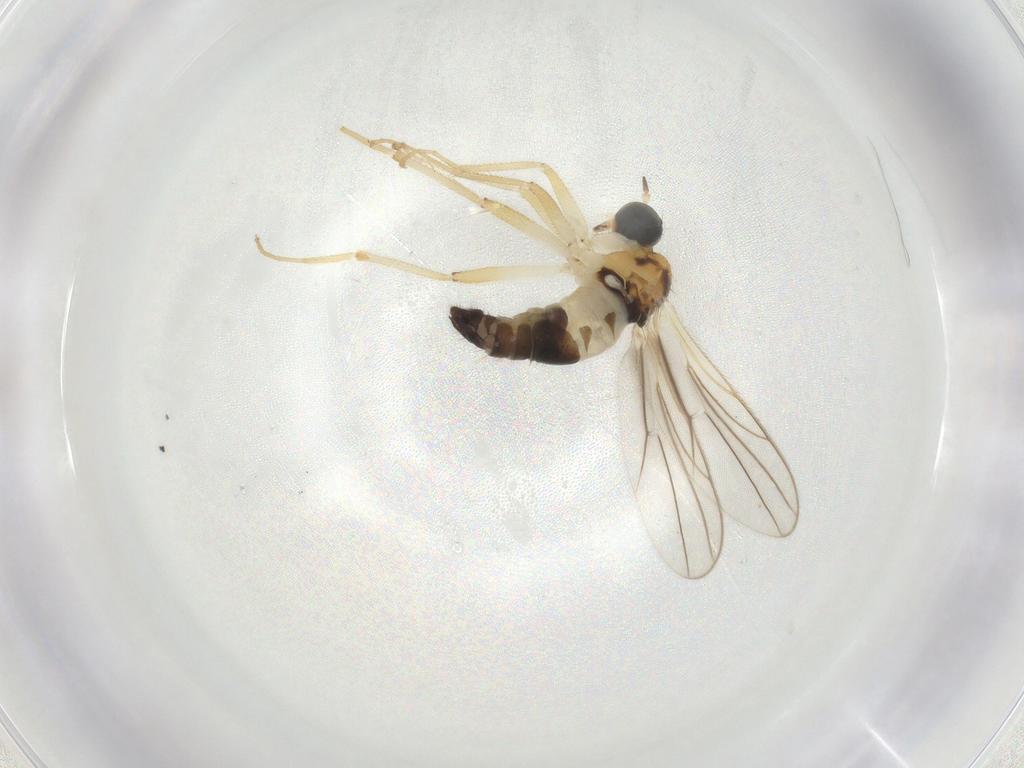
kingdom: Animalia
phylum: Arthropoda
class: Insecta
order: Diptera
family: Hybotidae
